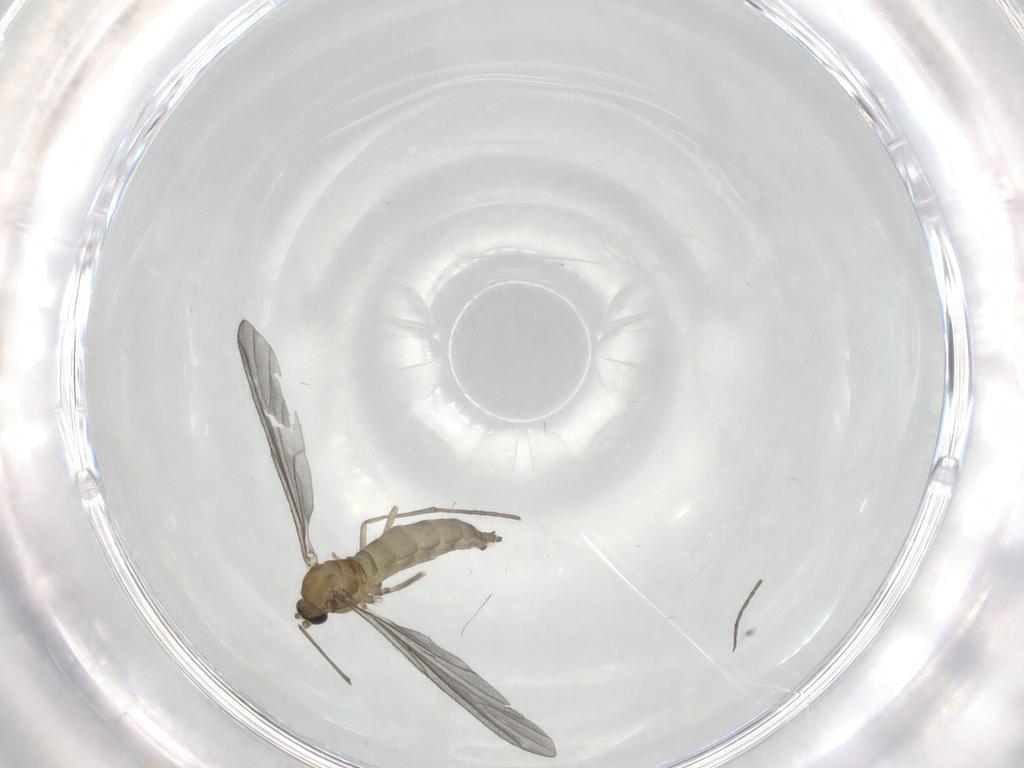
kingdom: Animalia
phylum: Arthropoda
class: Insecta
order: Diptera
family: Sciaridae
